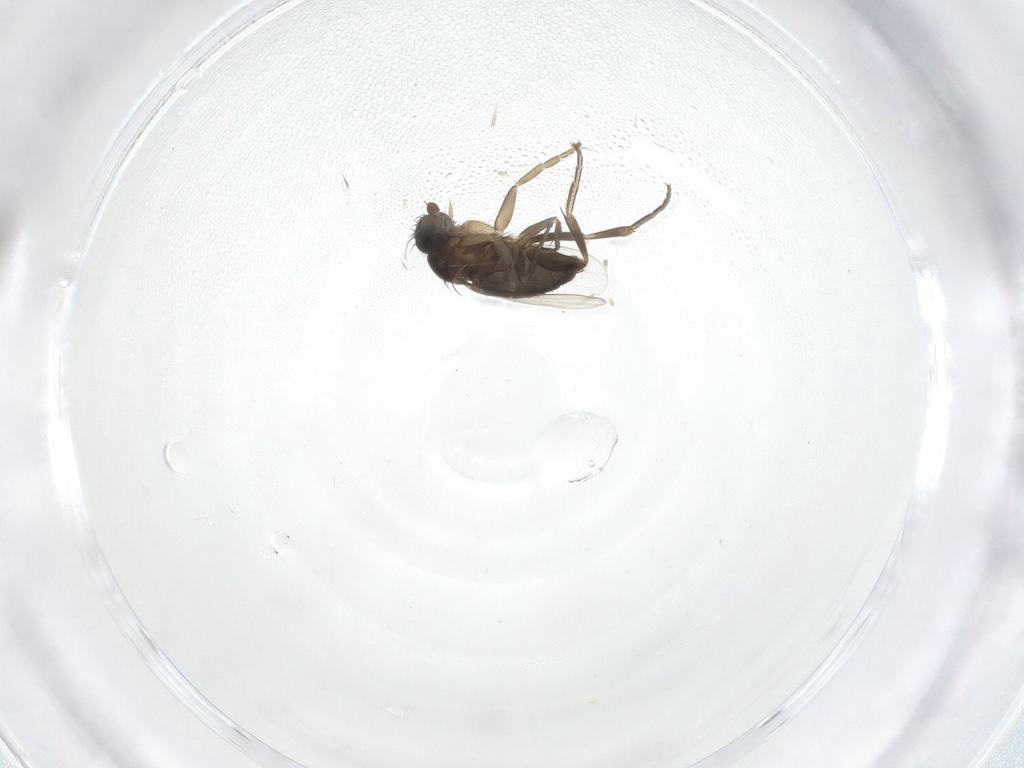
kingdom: Animalia
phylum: Arthropoda
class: Insecta
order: Diptera
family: Phoridae
